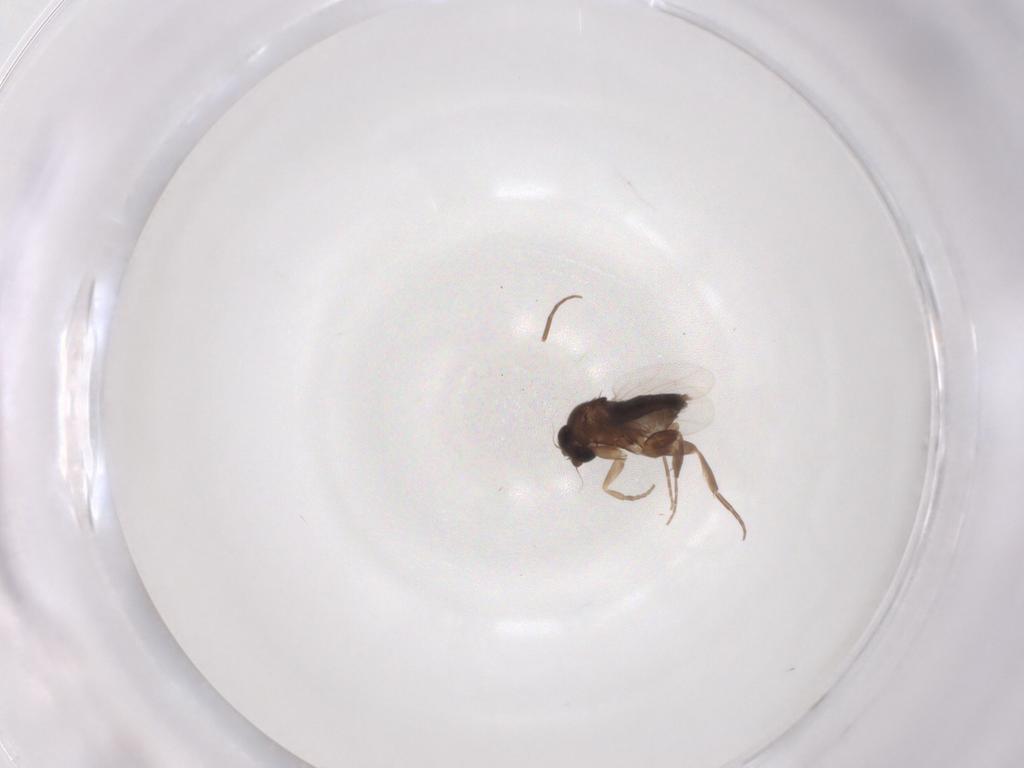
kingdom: Animalia
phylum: Arthropoda
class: Insecta
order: Diptera
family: Phoridae
